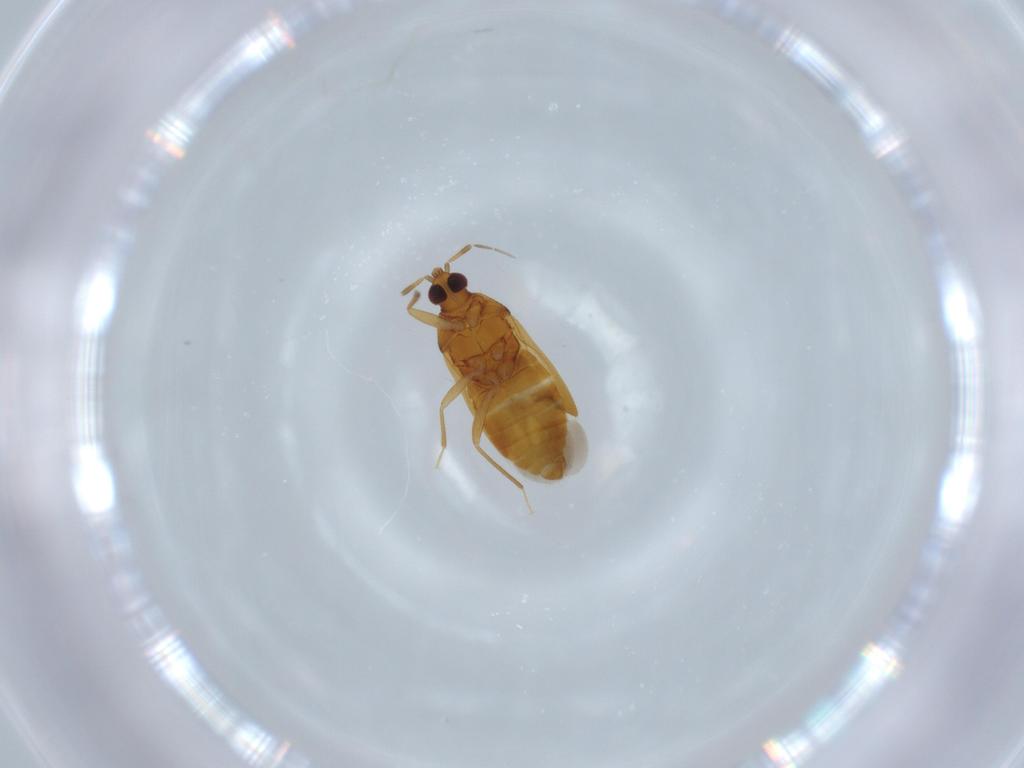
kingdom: Animalia
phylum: Arthropoda
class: Insecta
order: Hemiptera
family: Anthocoridae
